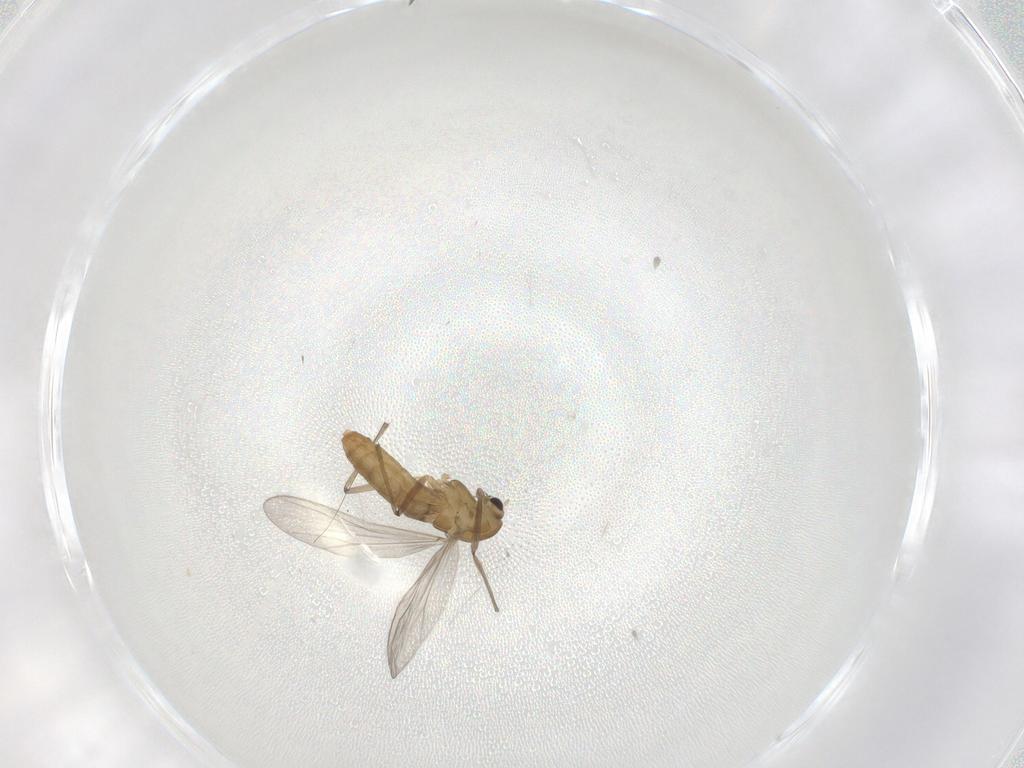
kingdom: Animalia
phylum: Arthropoda
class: Insecta
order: Diptera
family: Chironomidae
